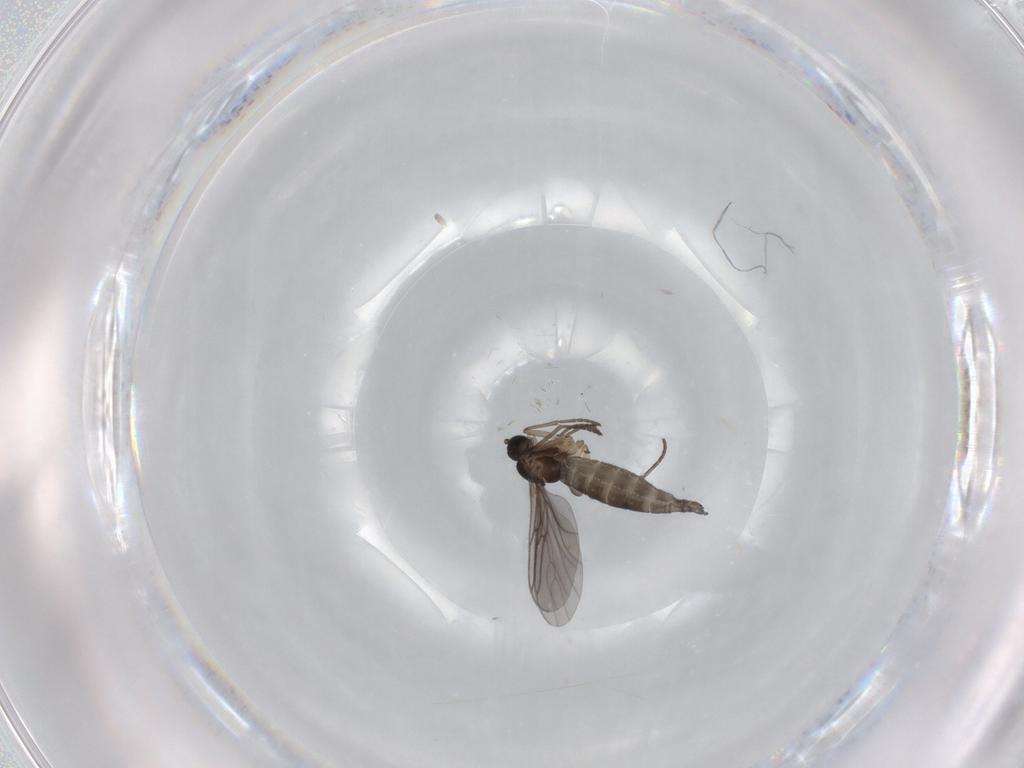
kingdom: Animalia
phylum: Arthropoda
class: Insecta
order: Diptera
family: Sciaridae
